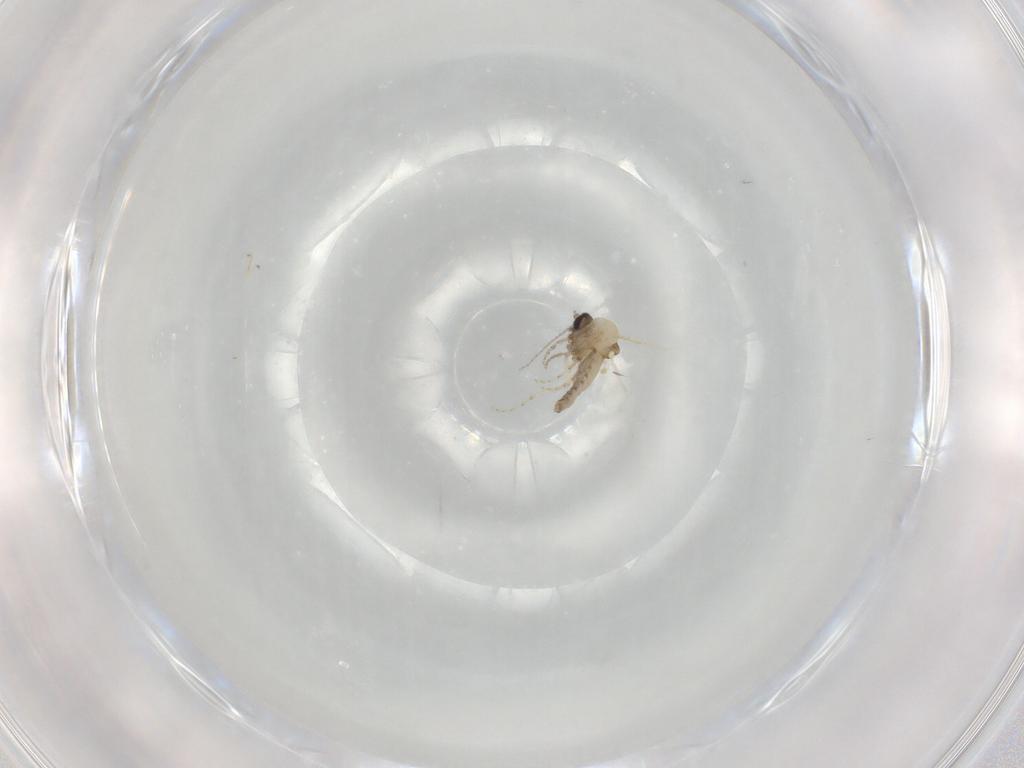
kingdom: Animalia
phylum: Arthropoda
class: Insecta
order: Diptera
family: Ceratopogonidae
